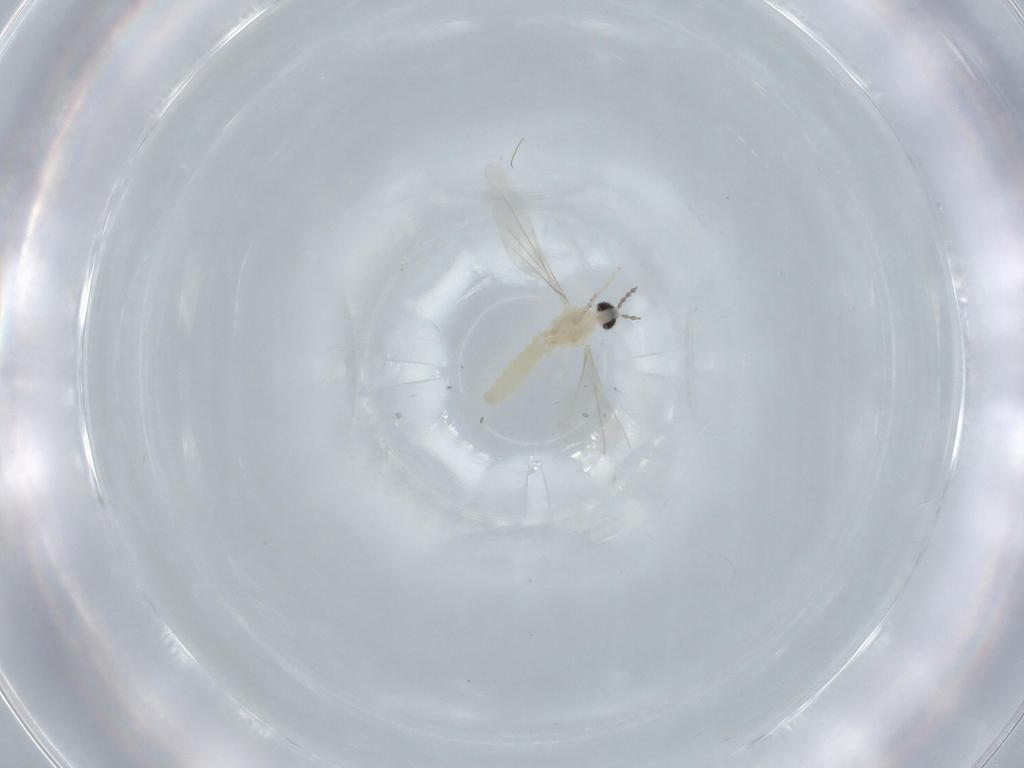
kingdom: Animalia
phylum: Arthropoda
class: Insecta
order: Diptera
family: Cecidomyiidae
